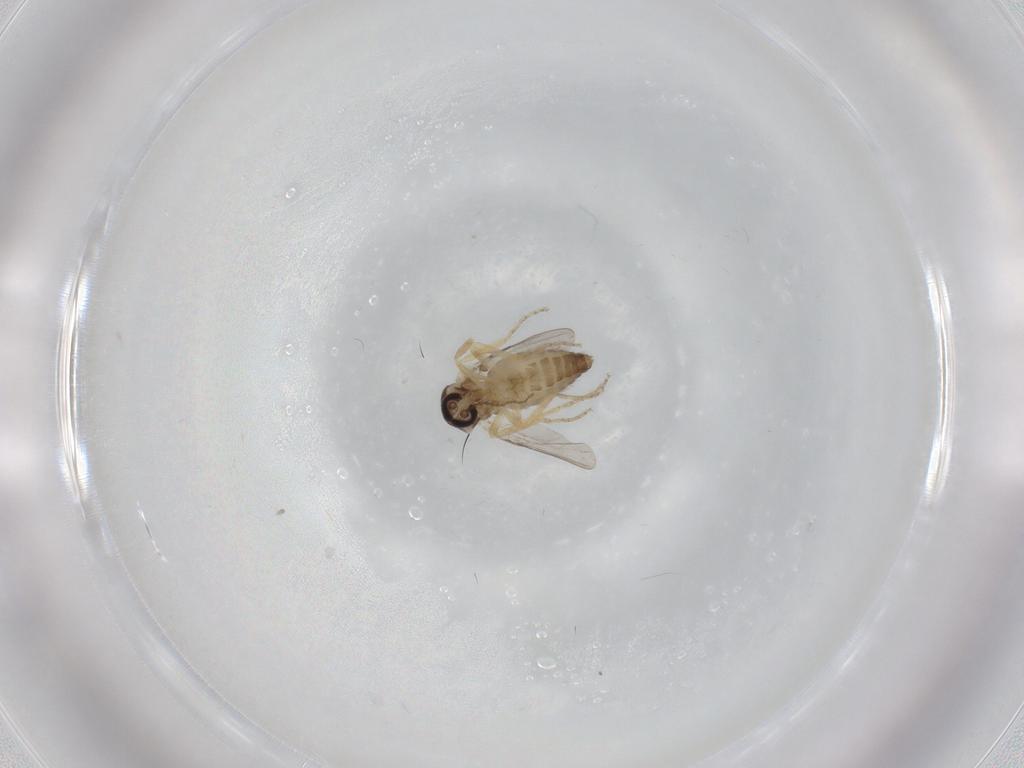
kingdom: Animalia
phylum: Arthropoda
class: Insecta
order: Diptera
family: Ceratopogonidae
